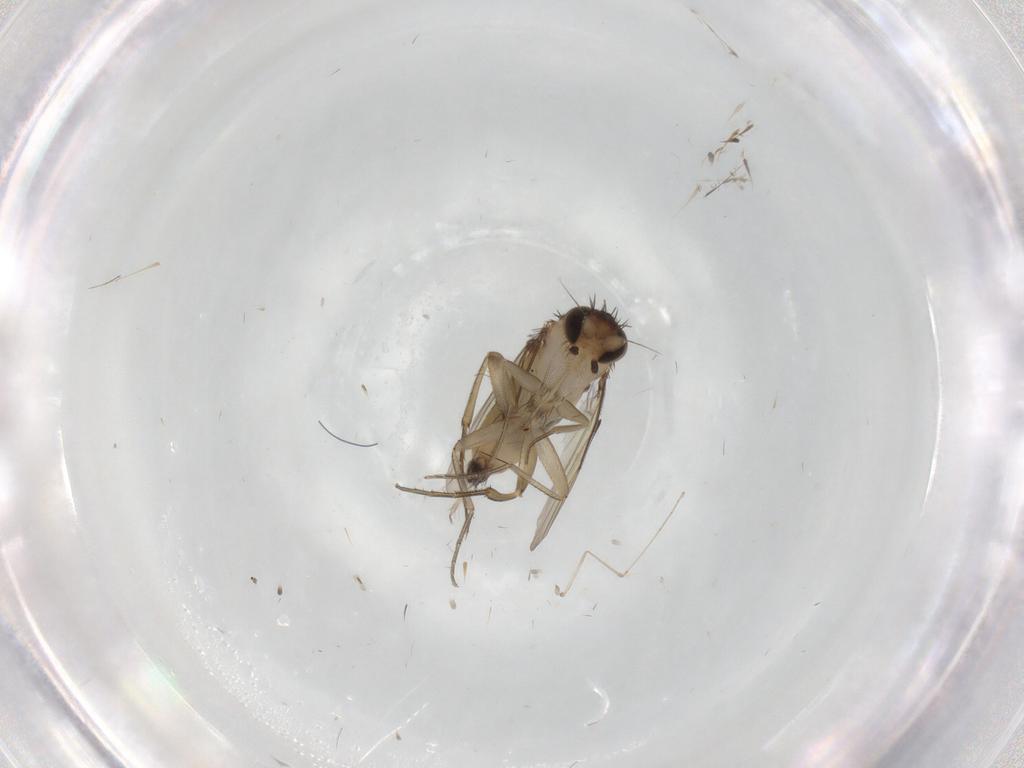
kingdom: Animalia
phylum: Arthropoda
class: Insecta
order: Diptera
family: Phoridae
